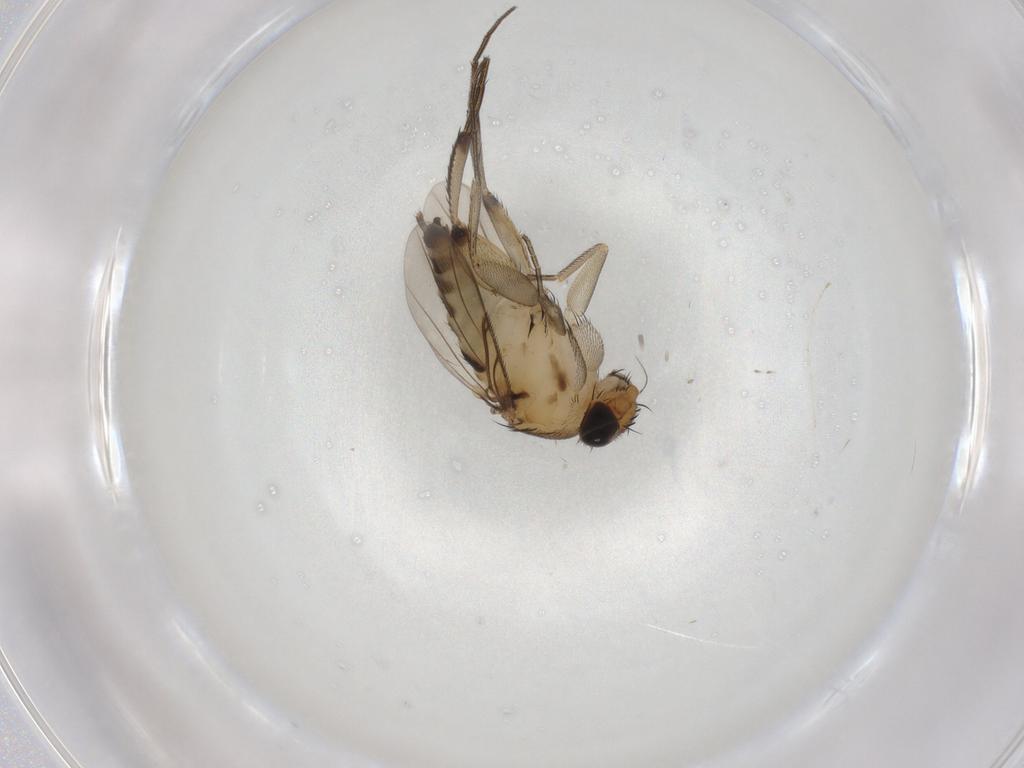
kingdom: Animalia
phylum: Arthropoda
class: Insecta
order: Diptera
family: Phoridae
